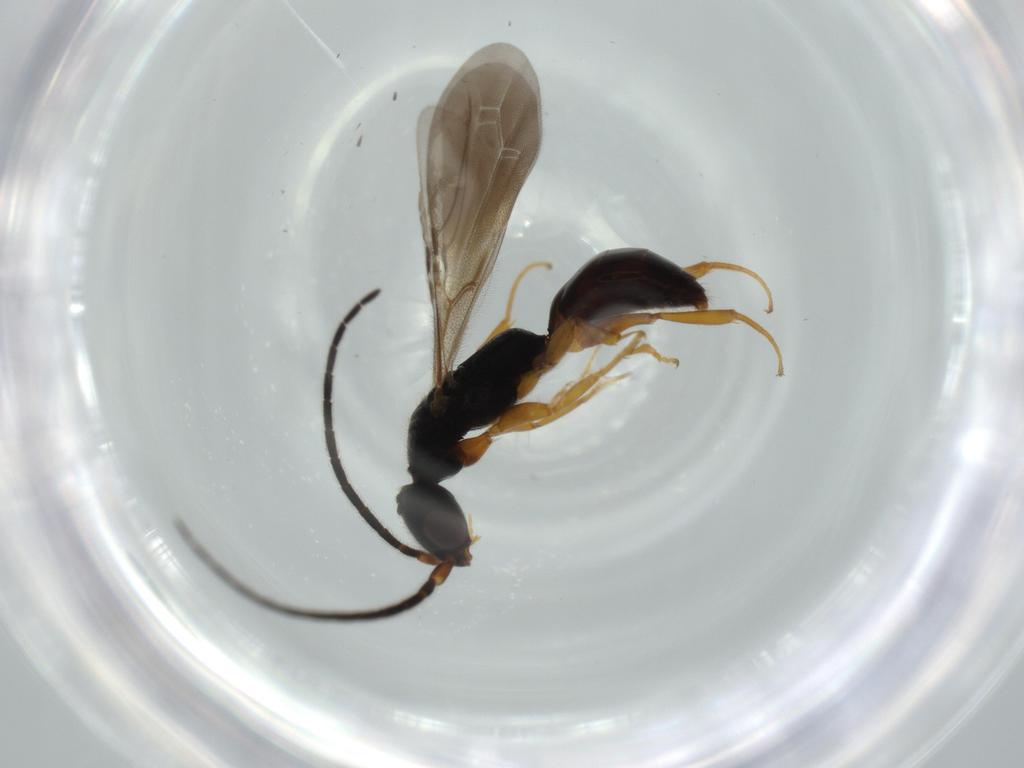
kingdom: Animalia
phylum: Arthropoda
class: Insecta
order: Hymenoptera
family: Bethylidae
